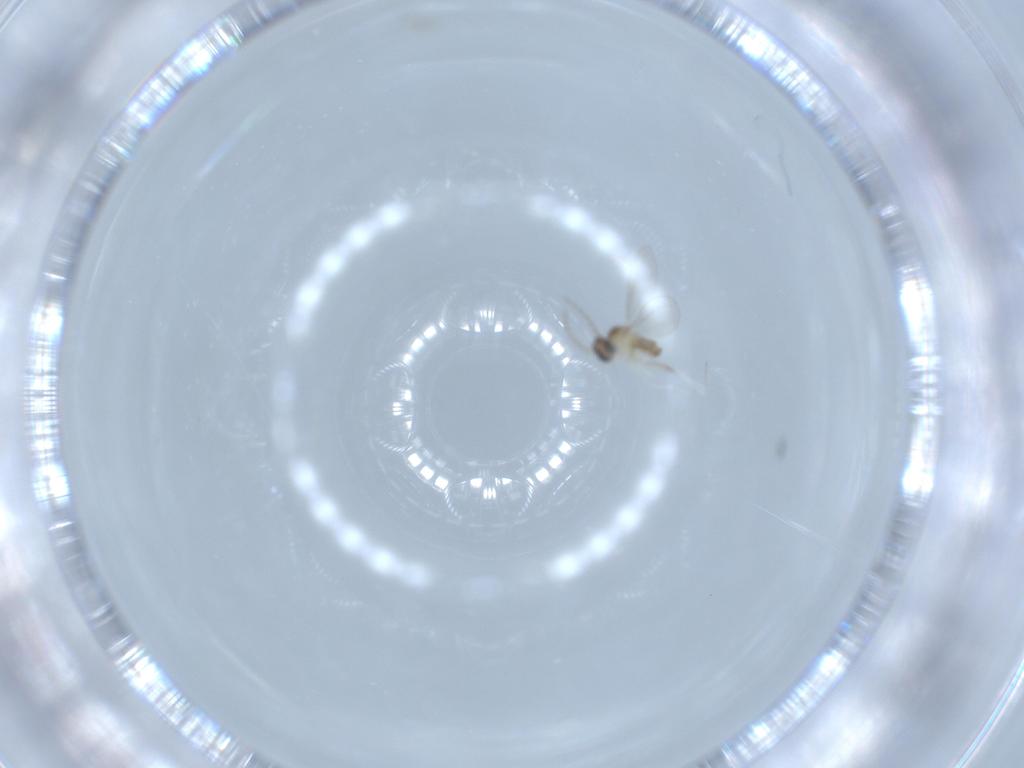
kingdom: Animalia
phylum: Arthropoda
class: Insecta
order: Diptera
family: Cecidomyiidae
